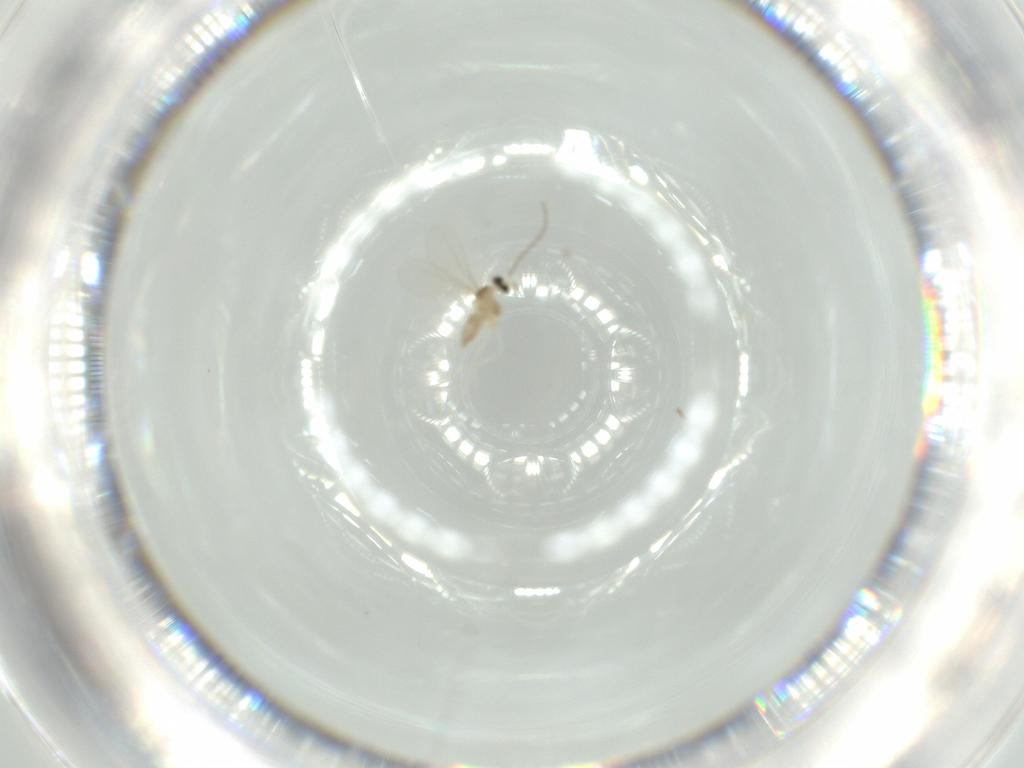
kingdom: Animalia
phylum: Arthropoda
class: Insecta
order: Diptera
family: Cecidomyiidae
